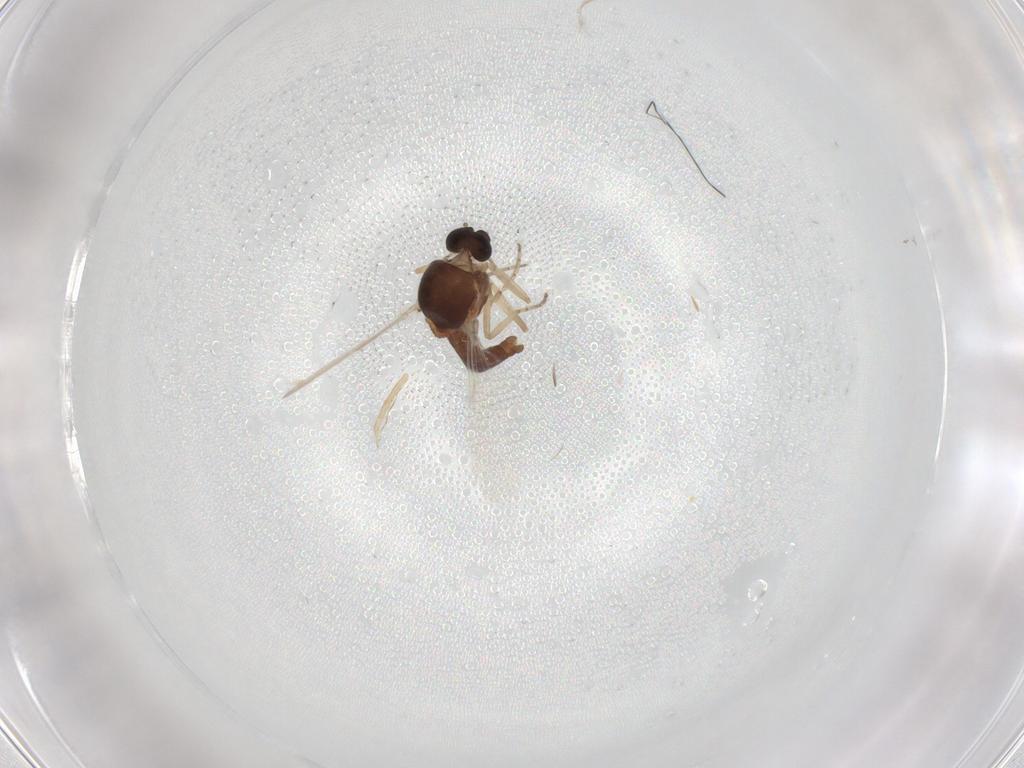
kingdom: Animalia
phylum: Arthropoda
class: Insecta
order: Diptera
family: Ceratopogonidae
